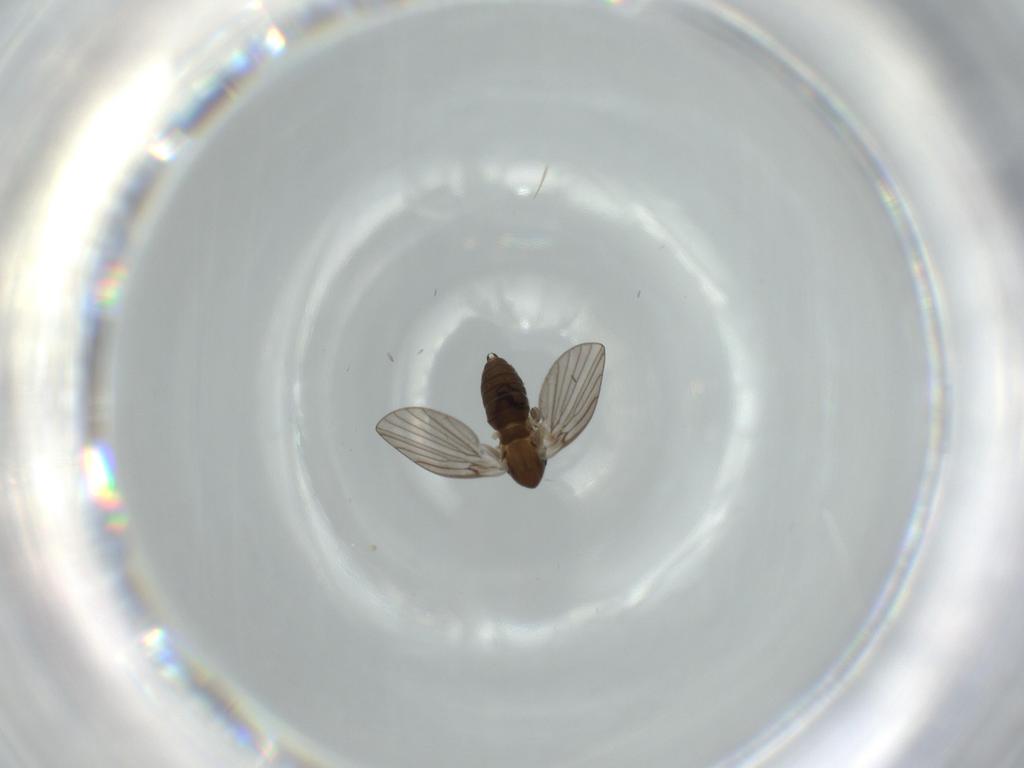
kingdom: Animalia
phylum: Arthropoda
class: Insecta
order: Diptera
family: Psychodidae
